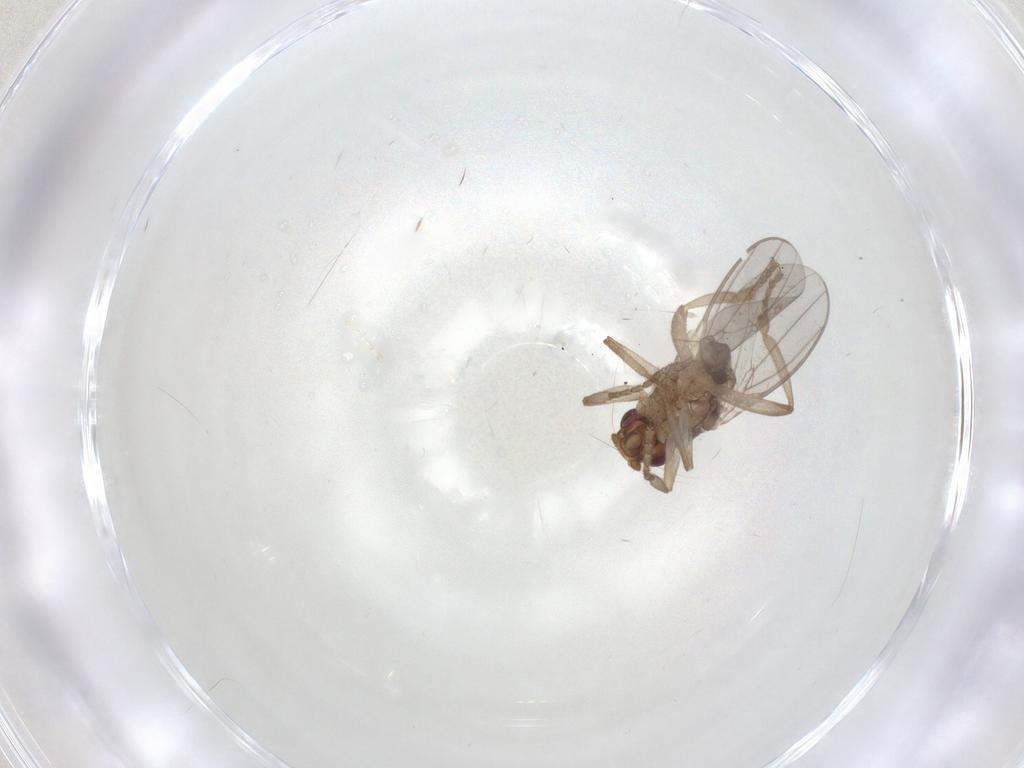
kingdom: Animalia
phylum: Arthropoda
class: Insecta
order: Diptera
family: Sphaeroceridae
